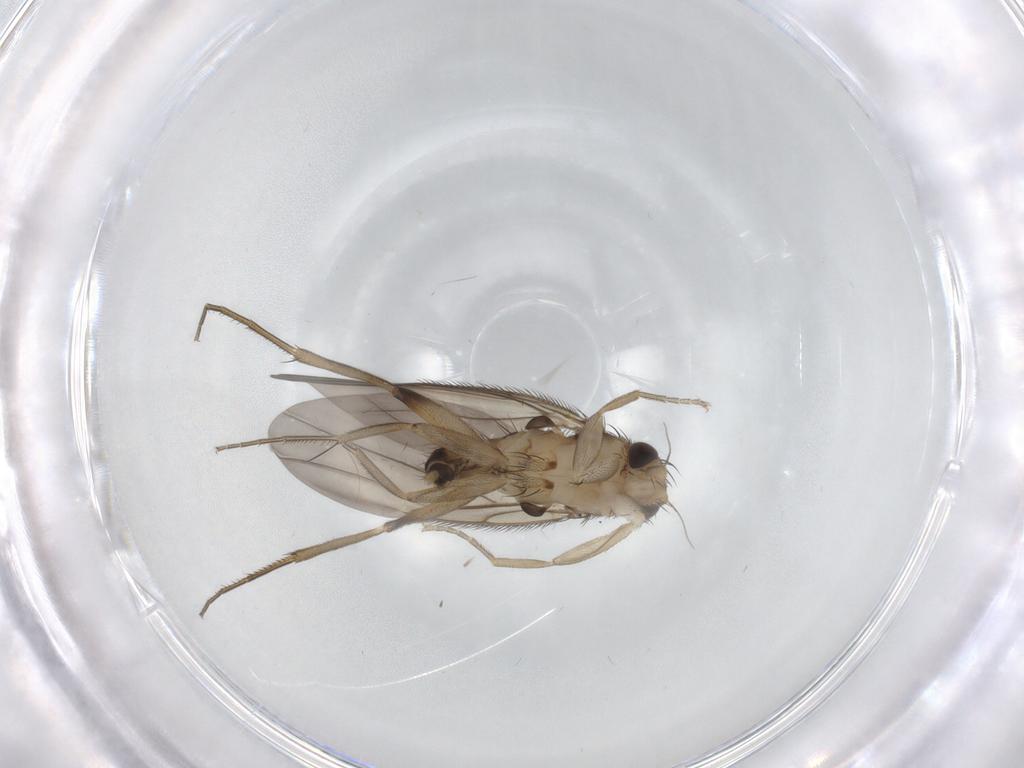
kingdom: Animalia
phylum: Arthropoda
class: Insecta
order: Diptera
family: Phoridae
